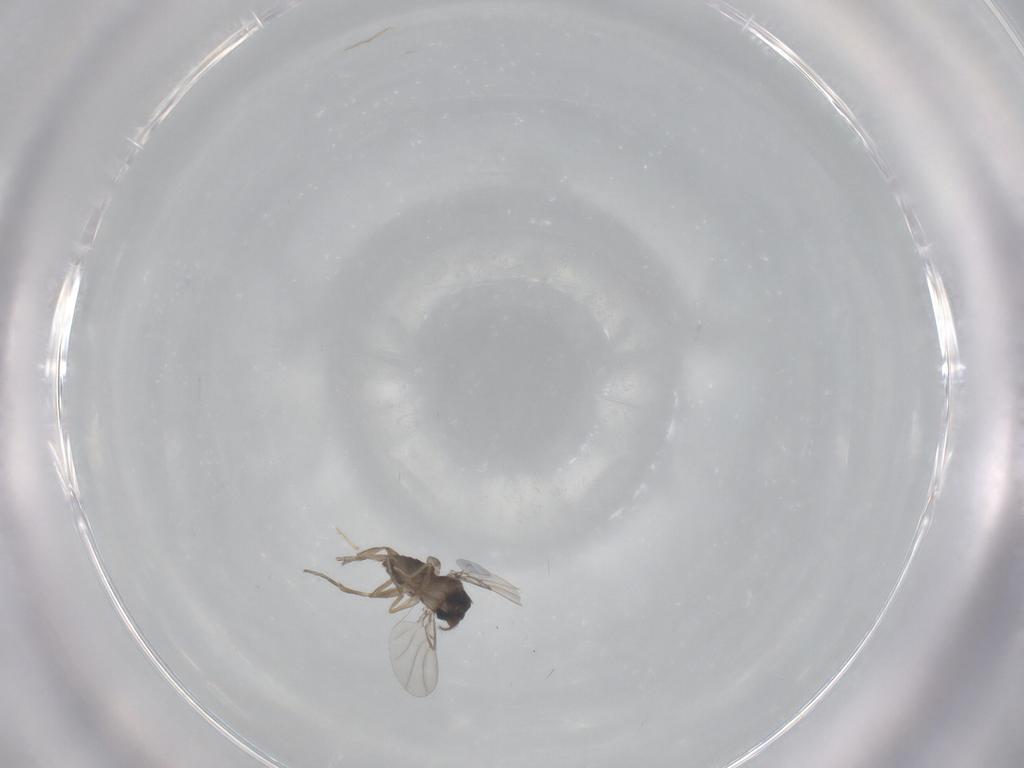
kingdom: Animalia
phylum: Arthropoda
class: Insecta
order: Diptera
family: Phoridae
